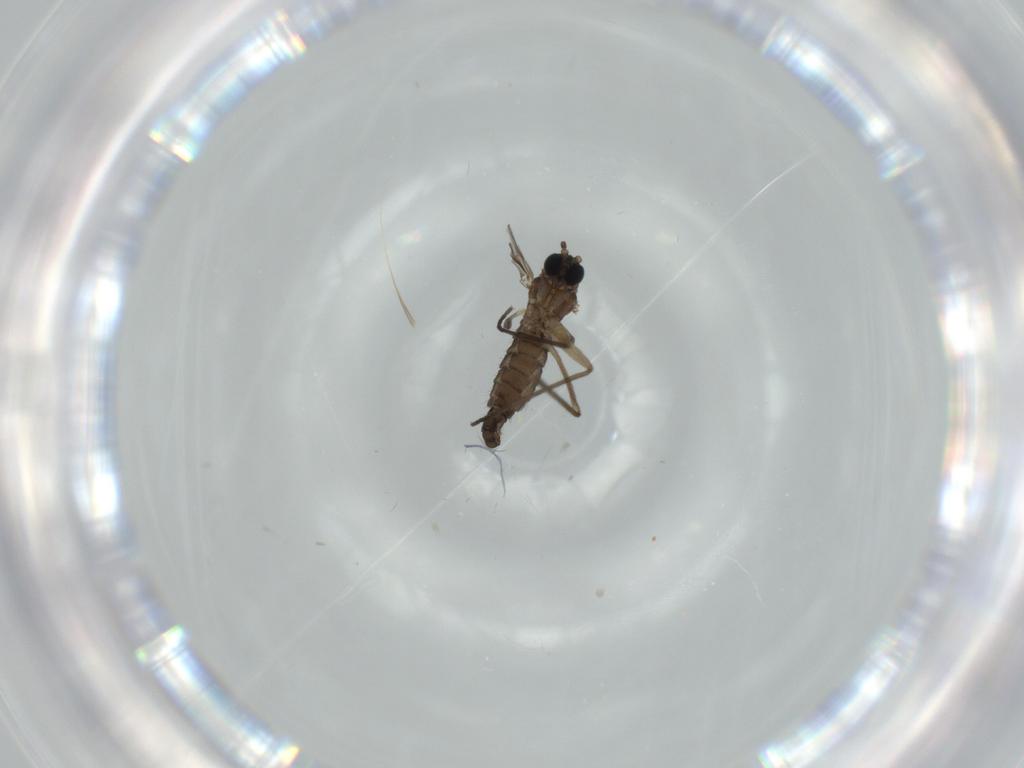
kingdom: Animalia
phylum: Arthropoda
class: Insecta
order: Diptera
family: Sciaridae
